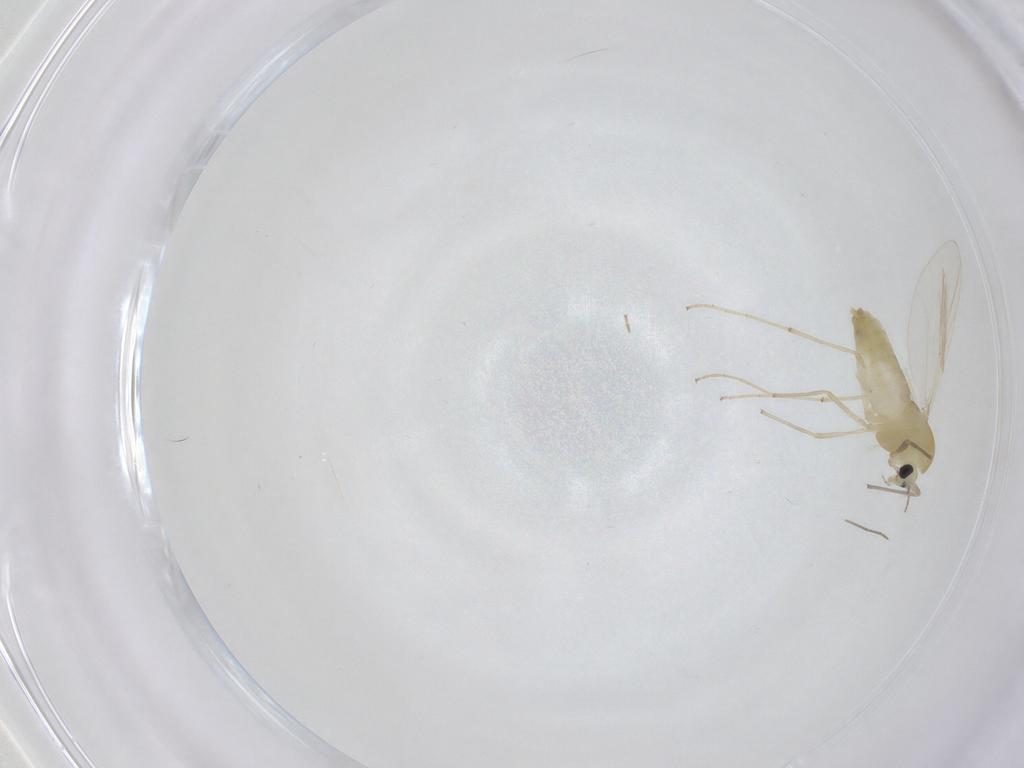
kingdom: Animalia
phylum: Arthropoda
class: Insecta
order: Diptera
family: Chironomidae
